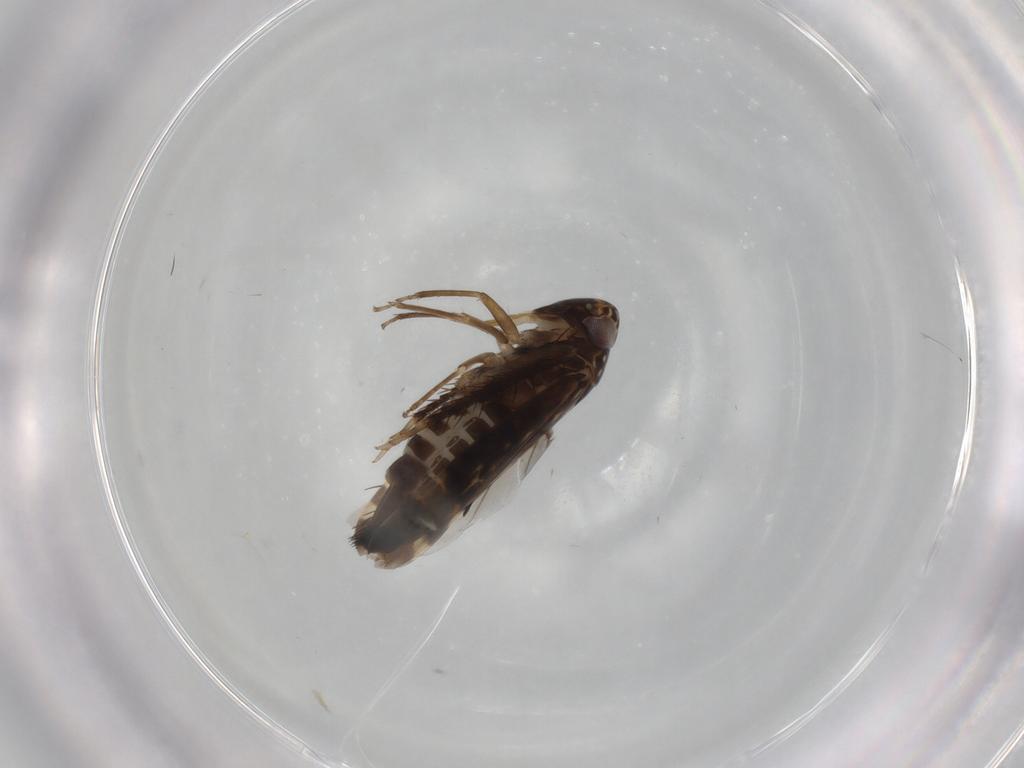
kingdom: Animalia
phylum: Arthropoda
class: Insecta
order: Hemiptera
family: Cicadellidae
